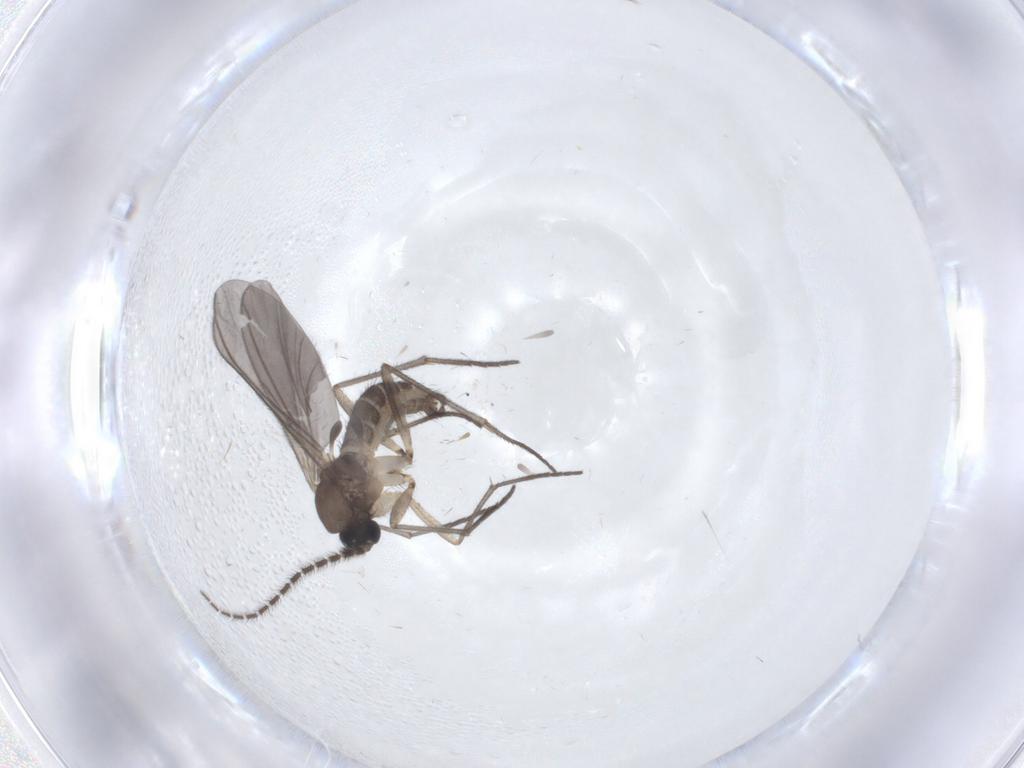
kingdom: Animalia
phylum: Arthropoda
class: Insecta
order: Diptera
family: Sciaridae
